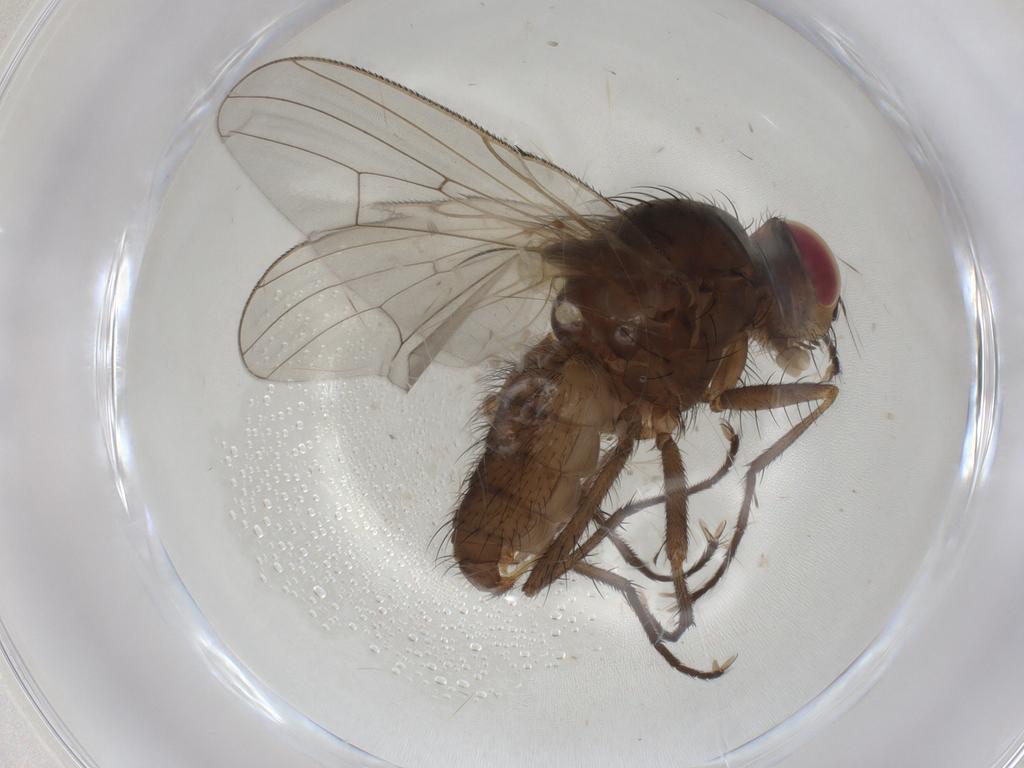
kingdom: Animalia
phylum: Arthropoda
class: Insecta
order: Diptera
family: Anthomyiidae
